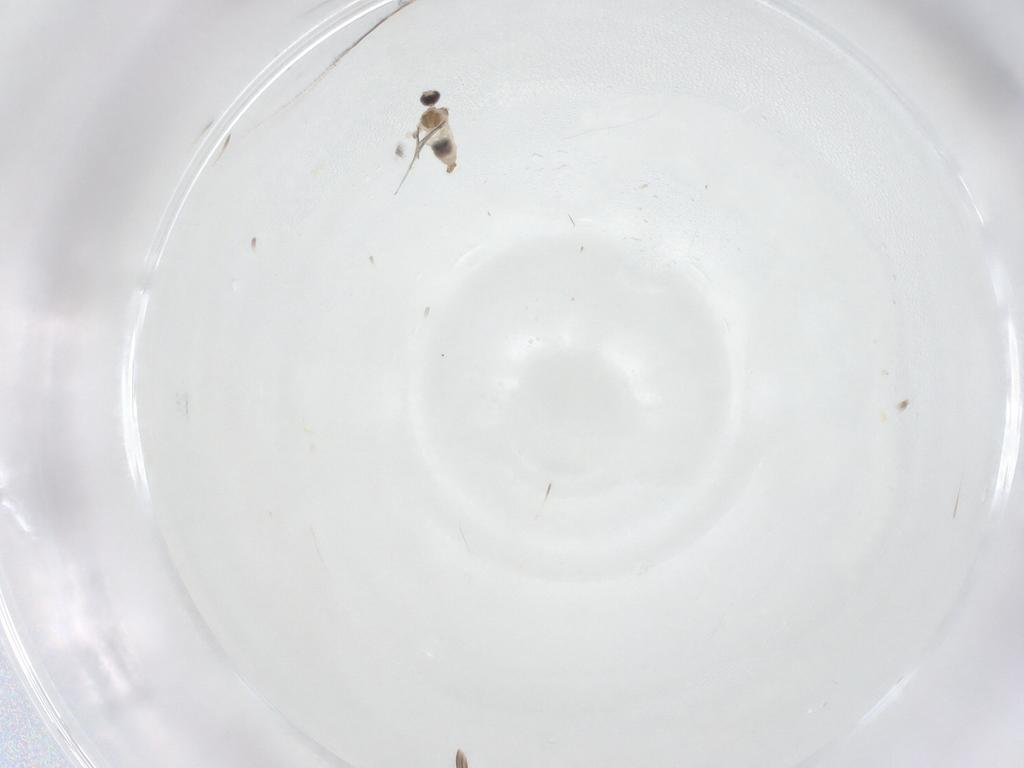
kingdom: Animalia
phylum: Arthropoda
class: Insecta
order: Diptera
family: Cecidomyiidae
